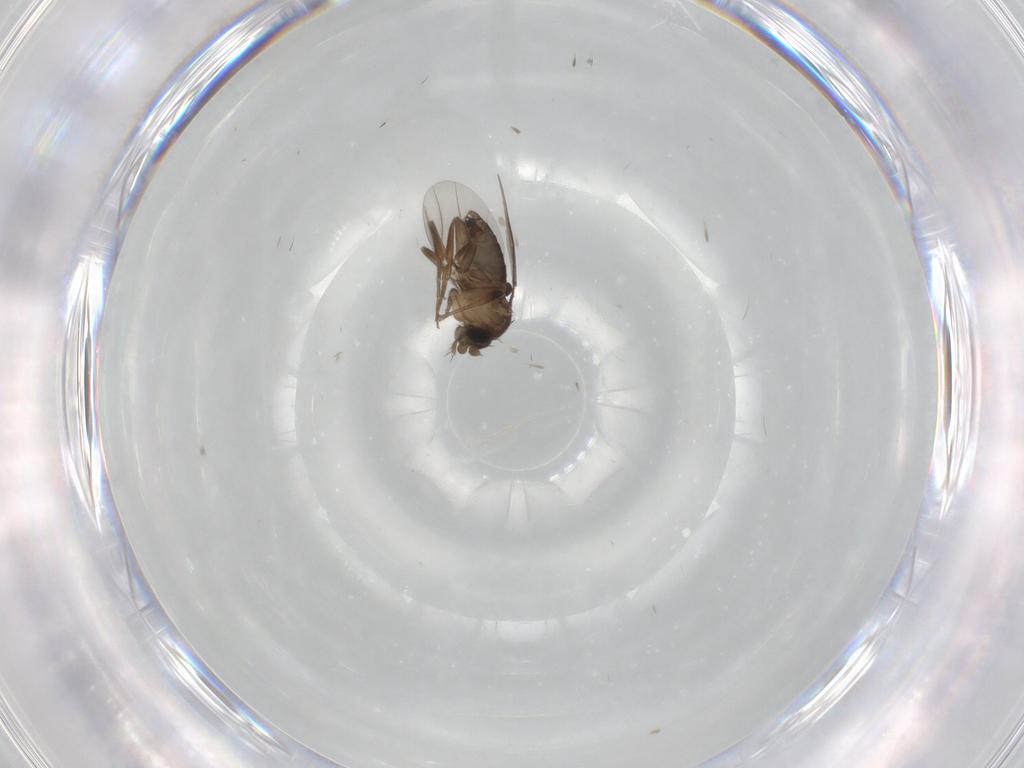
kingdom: Animalia
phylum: Arthropoda
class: Insecta
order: Diptera
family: Phoridae
